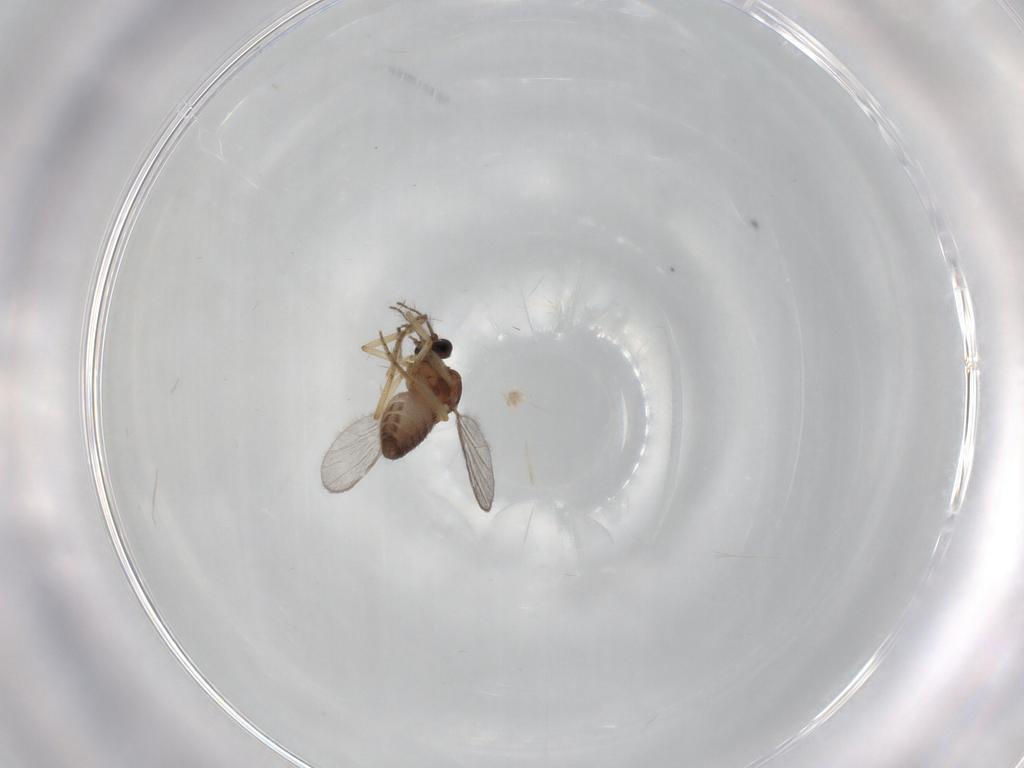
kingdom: Animalia
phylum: Arthropoda
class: Insecta
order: Diptera
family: Ceratopogonidae
